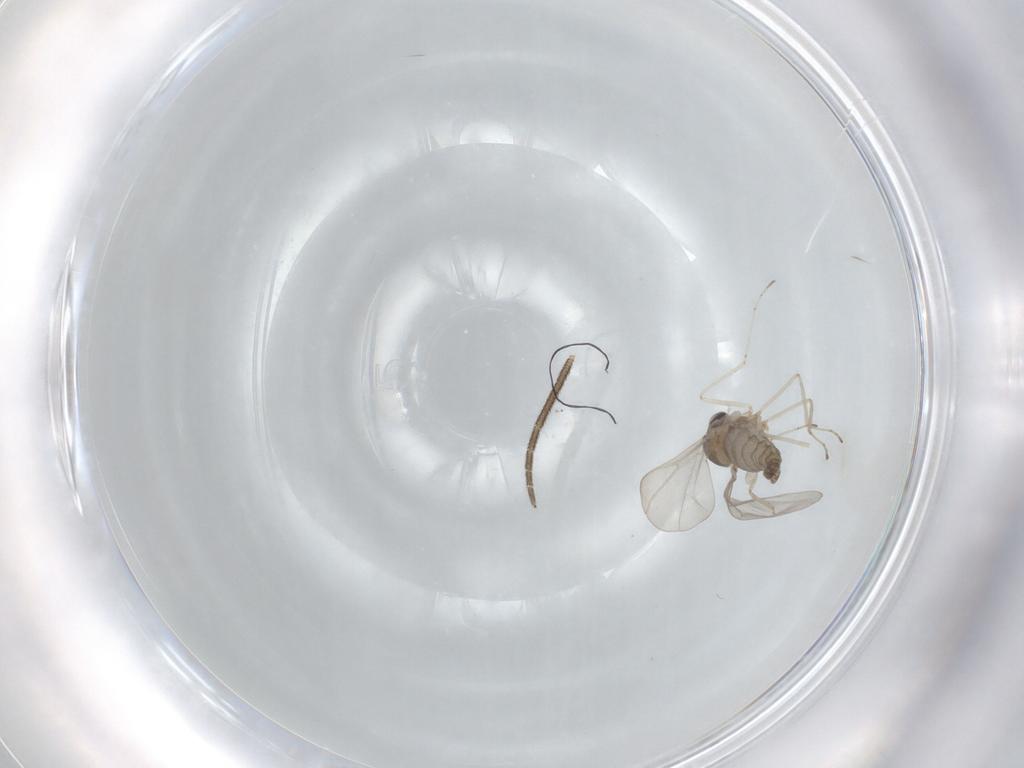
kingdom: Animalia
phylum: Arthropoda
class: Insecta
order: Diptera
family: Cecidomyiidae
